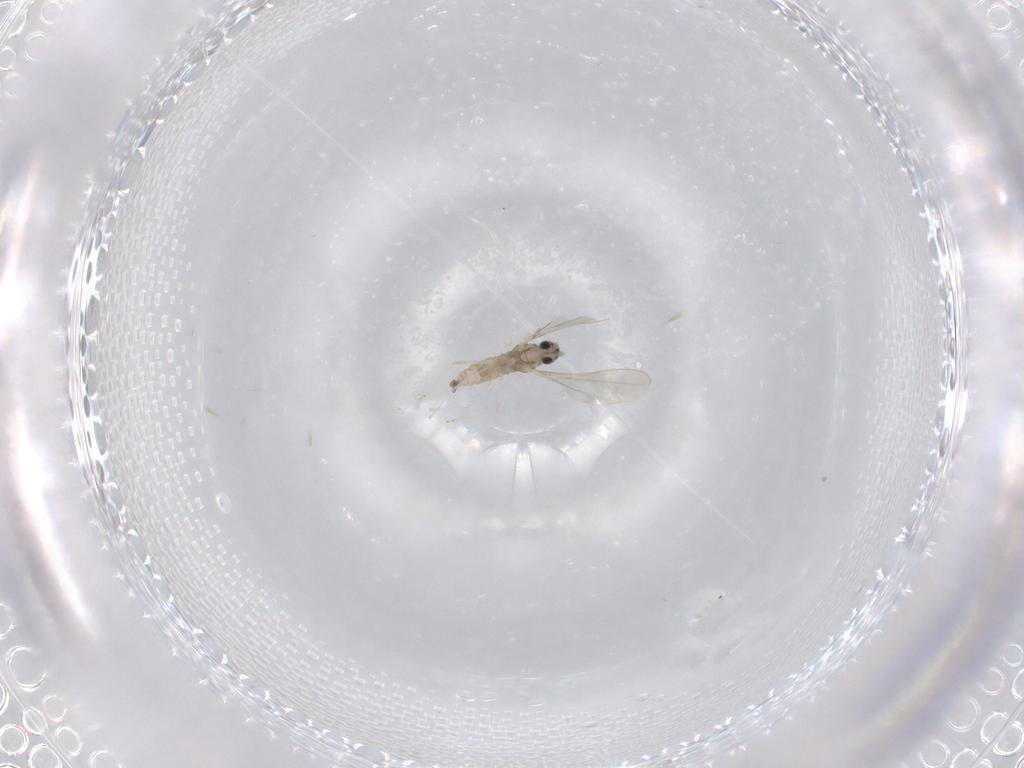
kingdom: Animalia
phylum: Arthropoda
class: Insecta
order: Diptera
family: Cecidomyiidae
